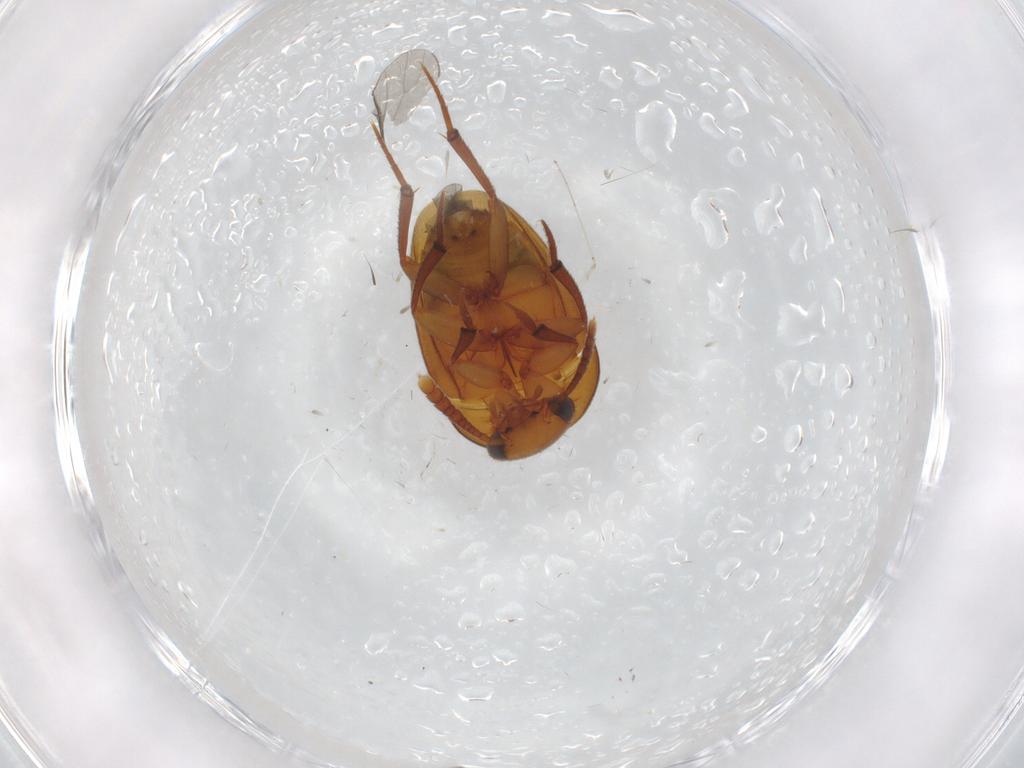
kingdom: Animalia
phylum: Arthropoda
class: Insecta
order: Coleoptera
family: Leiodidae
